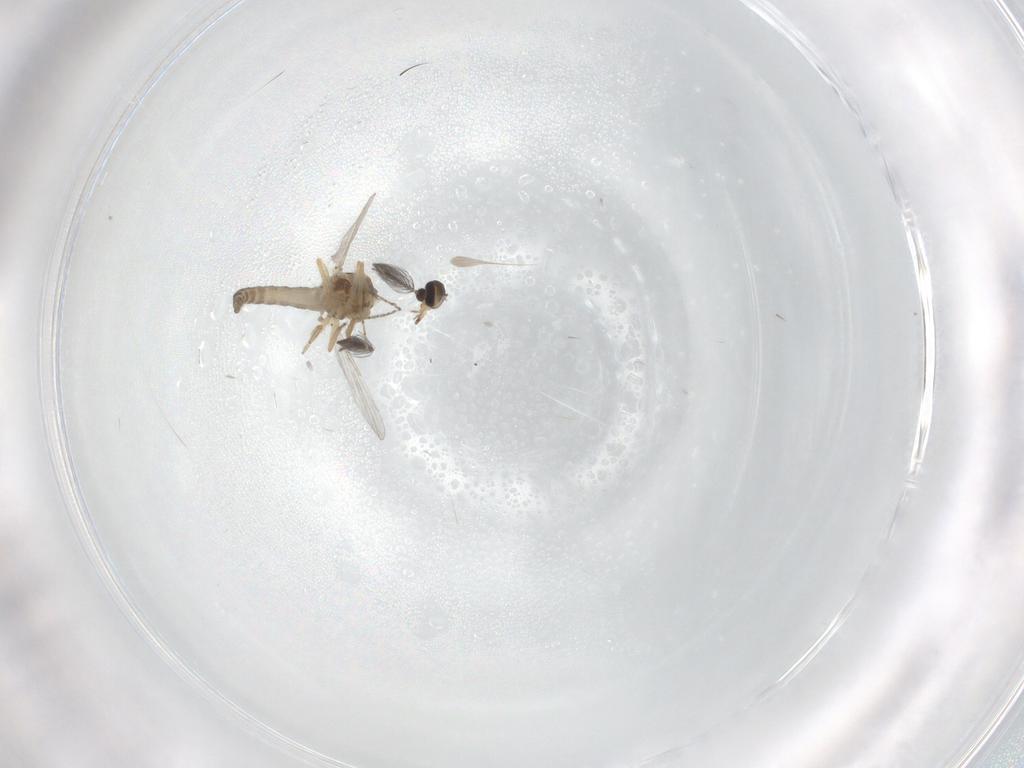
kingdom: Animalia
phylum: Arthropoda
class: Insecta
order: Diptera
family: Ceratopogonidae
